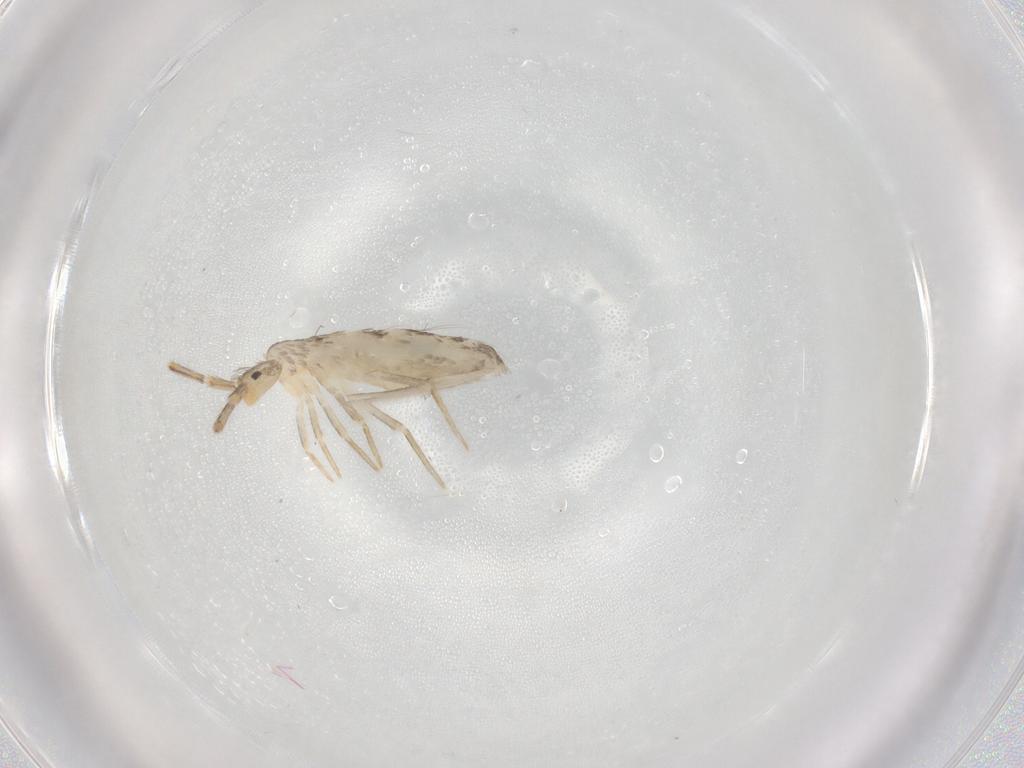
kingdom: Animalia
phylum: Arthropoda
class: Collembola
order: Entomobryomorpha
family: Entomobryidae
